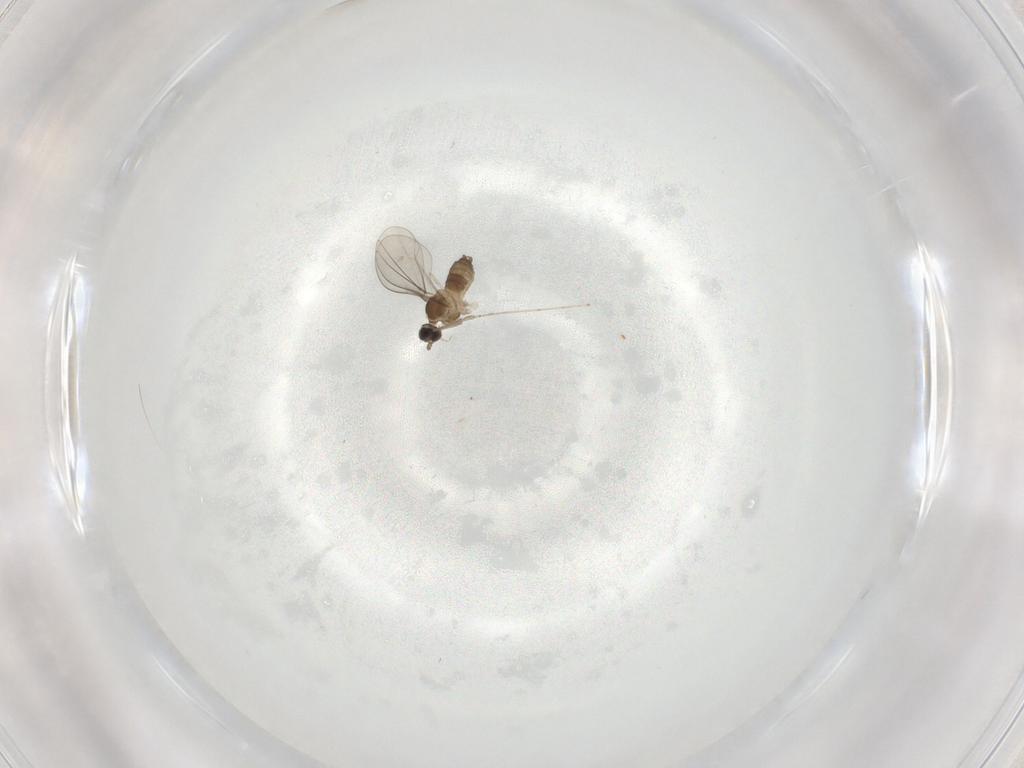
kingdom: Animalia
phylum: Arthropoda
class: Insecta
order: Diptera
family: Cecidomyiidae
